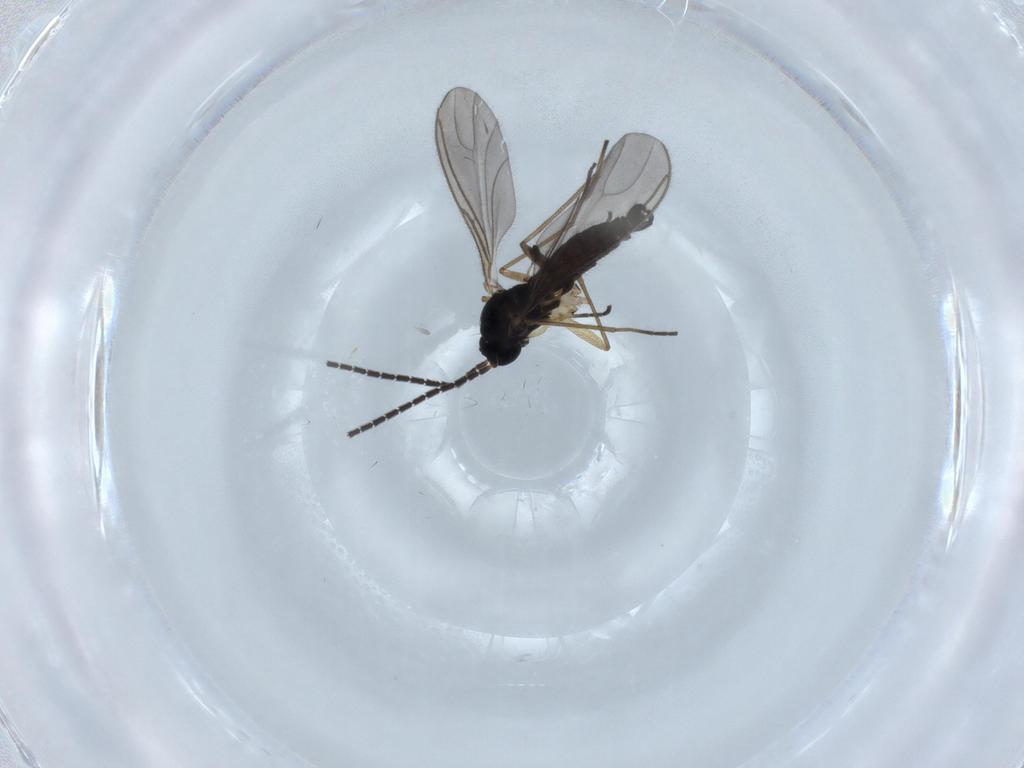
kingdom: Animalia
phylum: Arthropoda
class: Insecta
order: Diptera
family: Sciaridae
